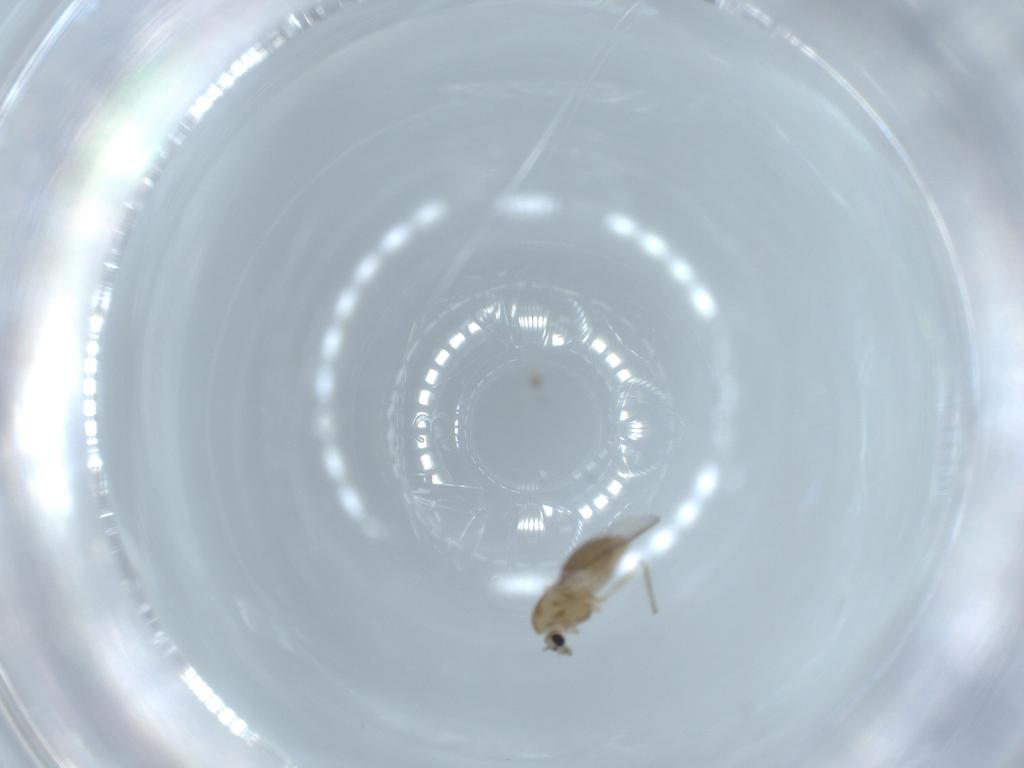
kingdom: Animalia
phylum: Arthropoda
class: Insecta
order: Diptera
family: Chironomidae
